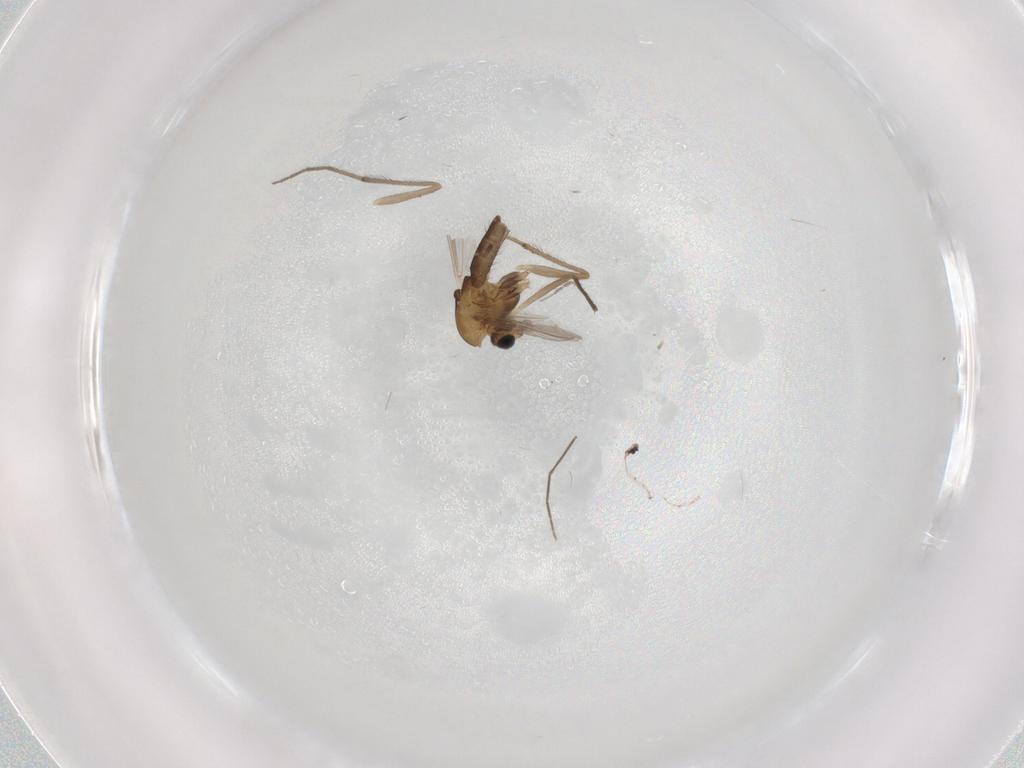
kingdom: Animalia
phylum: Arthropoda
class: Insecta
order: Diptera
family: Chironomidae
